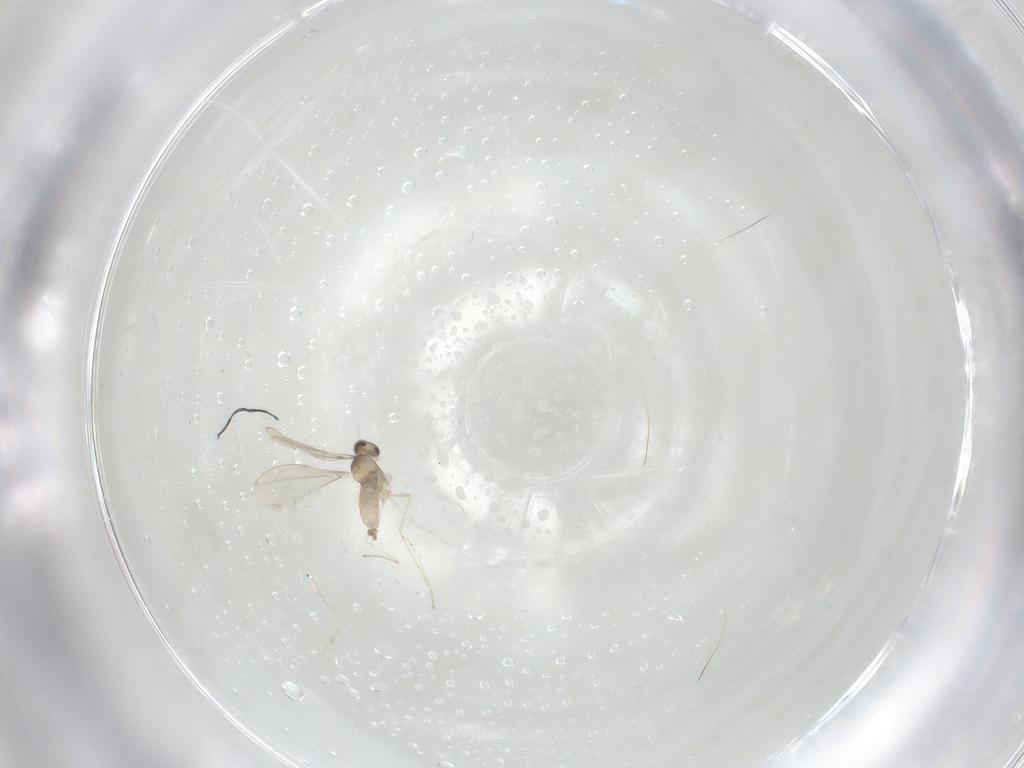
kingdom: Animalia
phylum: Arthropoda
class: Insecta
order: Diptera
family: Cecidomyiidae
